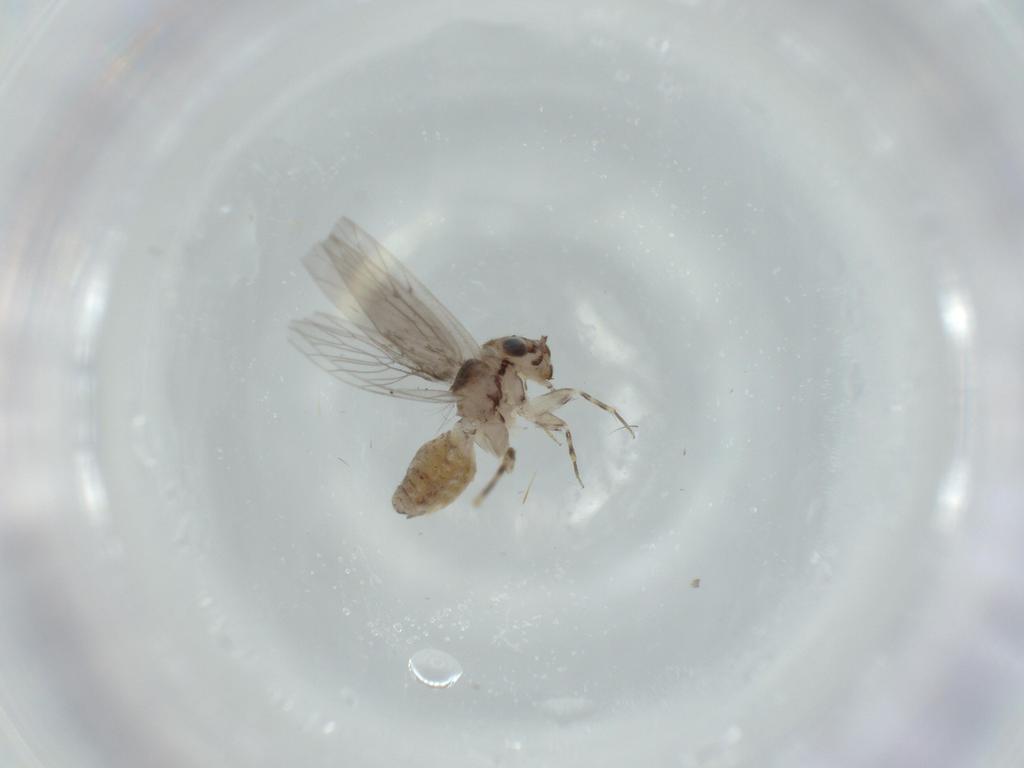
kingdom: Animalia
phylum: Arthropoda
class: Insecta
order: Psocodea
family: Lepidopsocidae
